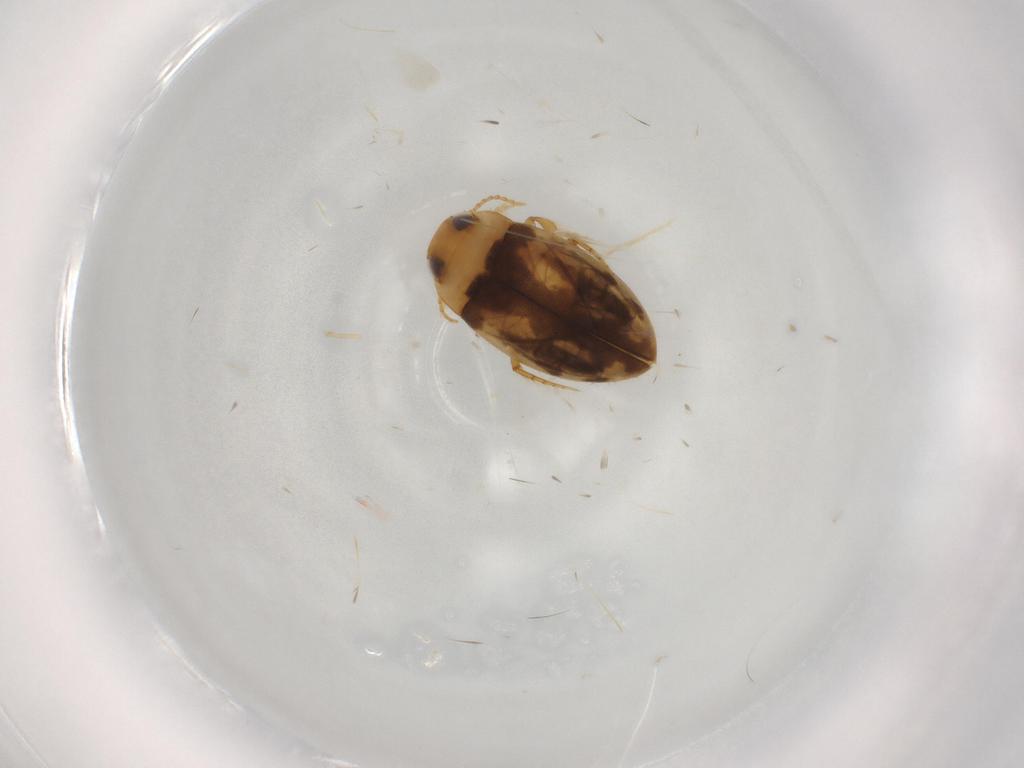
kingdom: Animalia
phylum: Arthropoda
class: Insecta
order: Coleoptera
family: Dytiscidae
